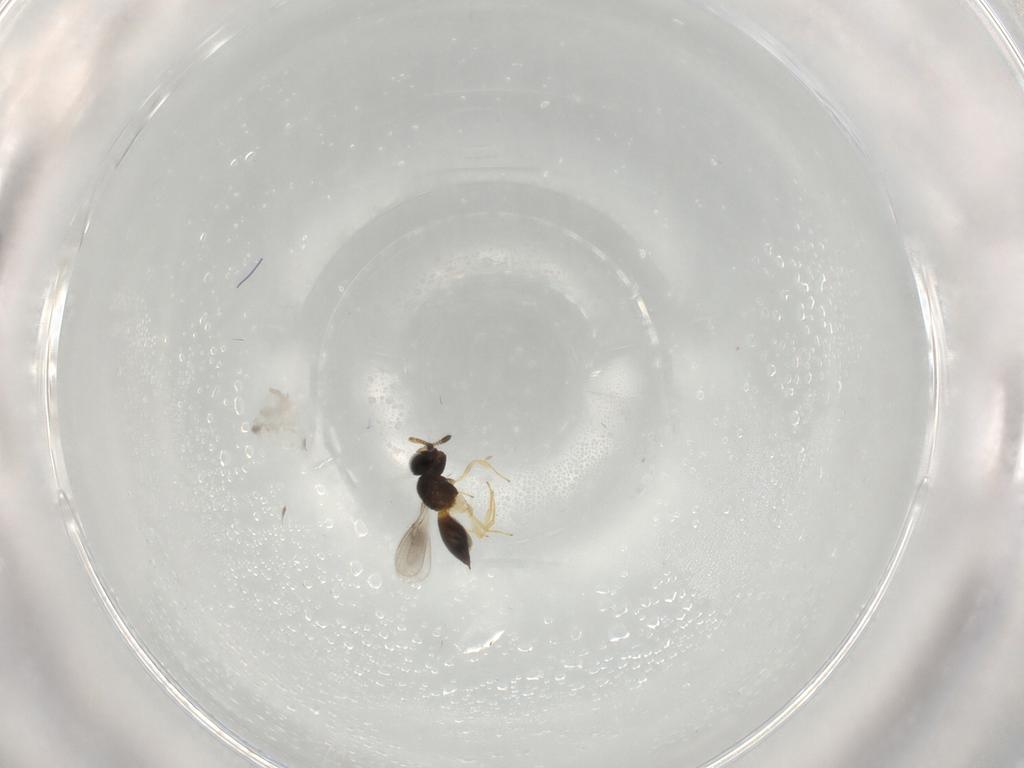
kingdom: Animalia
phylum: Arthropoda
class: Insecta
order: Hymenoptera
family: Scelionidae
